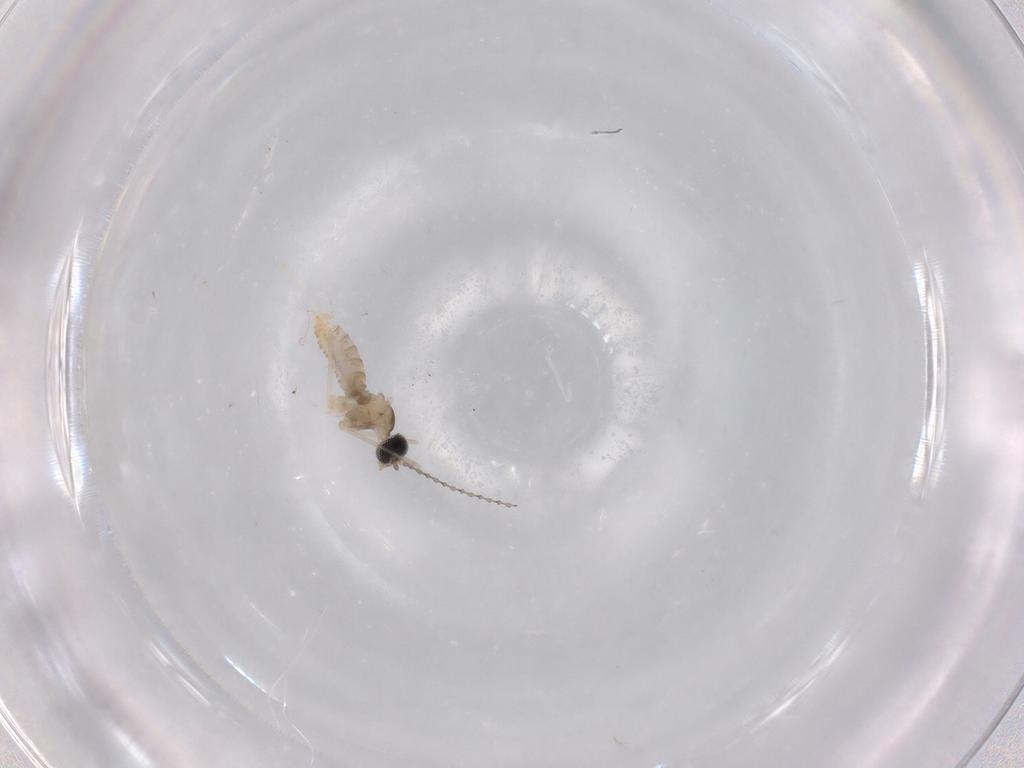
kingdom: Animalia
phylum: Arthropoda
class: Insecta
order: Diptera
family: Cecidomyiidae
